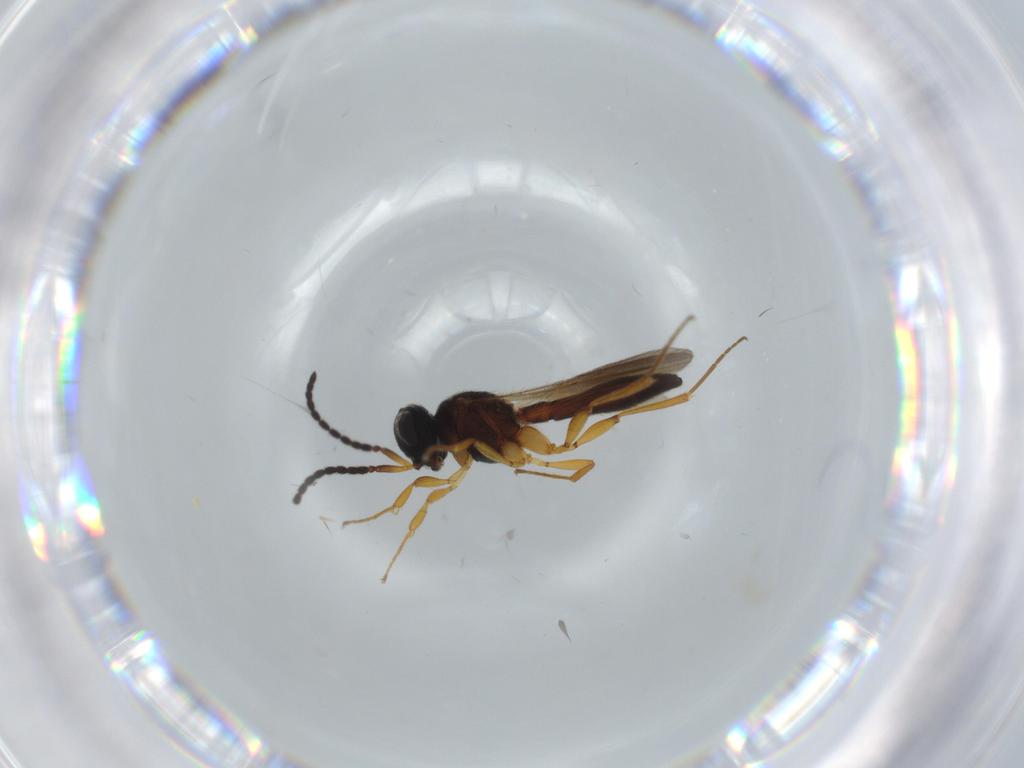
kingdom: Animalia
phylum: Arthropoda
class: Insecta
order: Hymenoptera
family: Scelionidae
